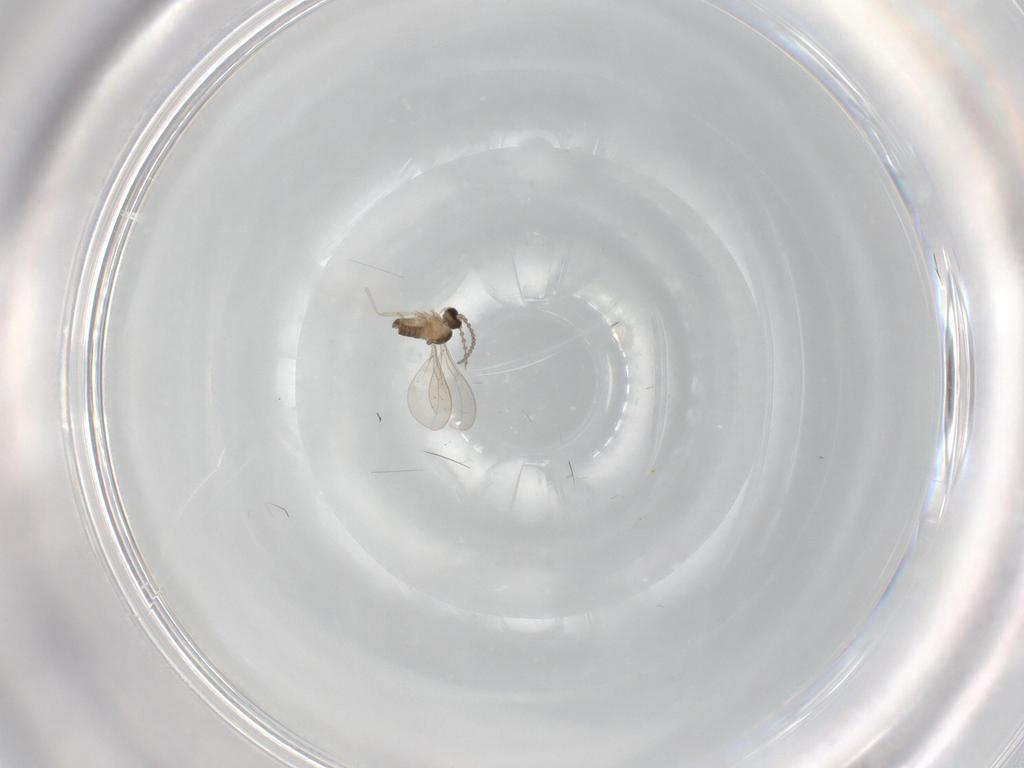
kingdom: Animalia
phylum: Arthropoda
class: Insecta
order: Diptera
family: Cecidomyiidae
